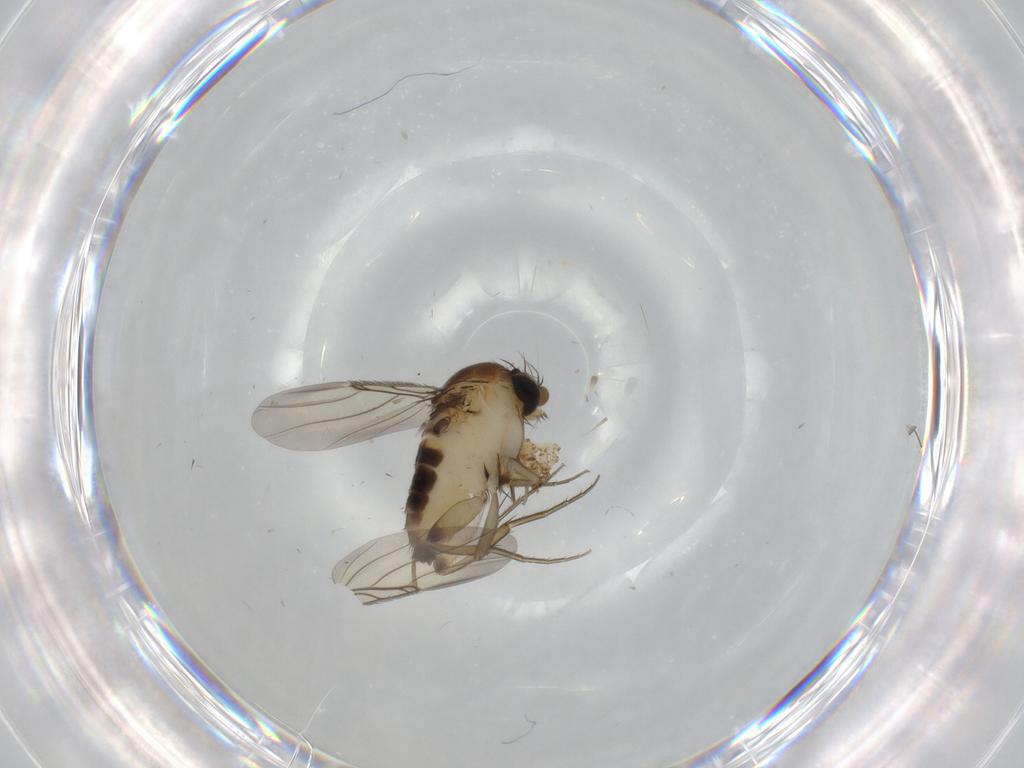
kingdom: Animalia
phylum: Arthropoda
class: Insecta
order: Diptera
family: Phoridae
